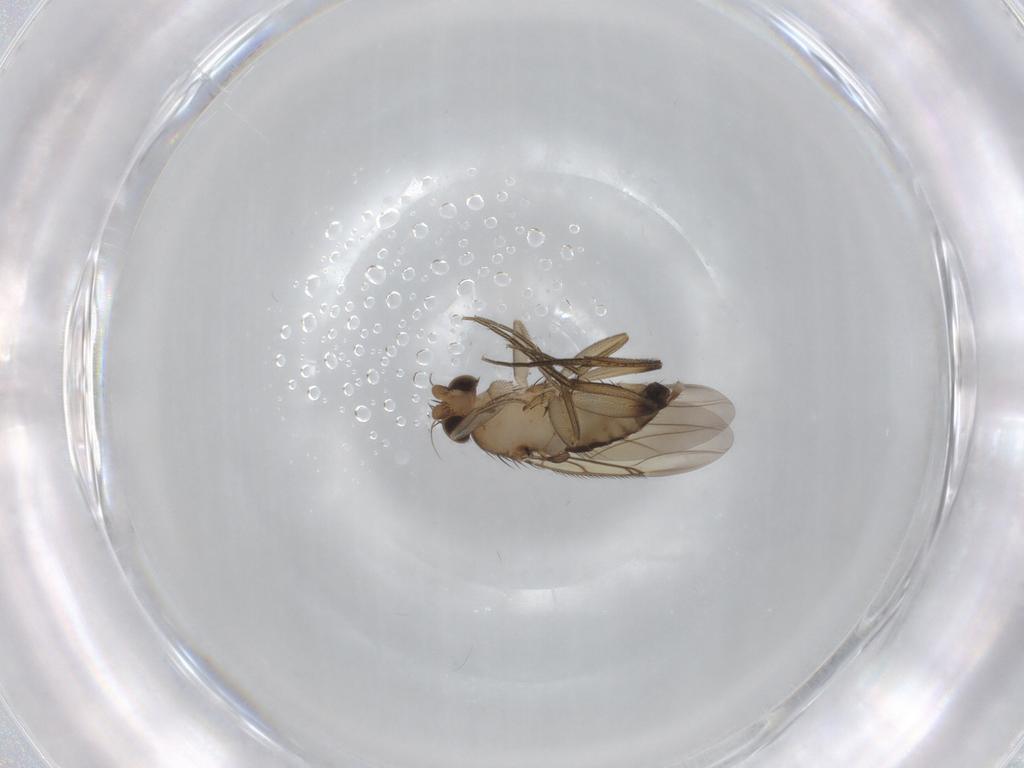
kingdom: Animalia
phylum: Arthropoda
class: Insecta
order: Diptera
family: Phoridae
